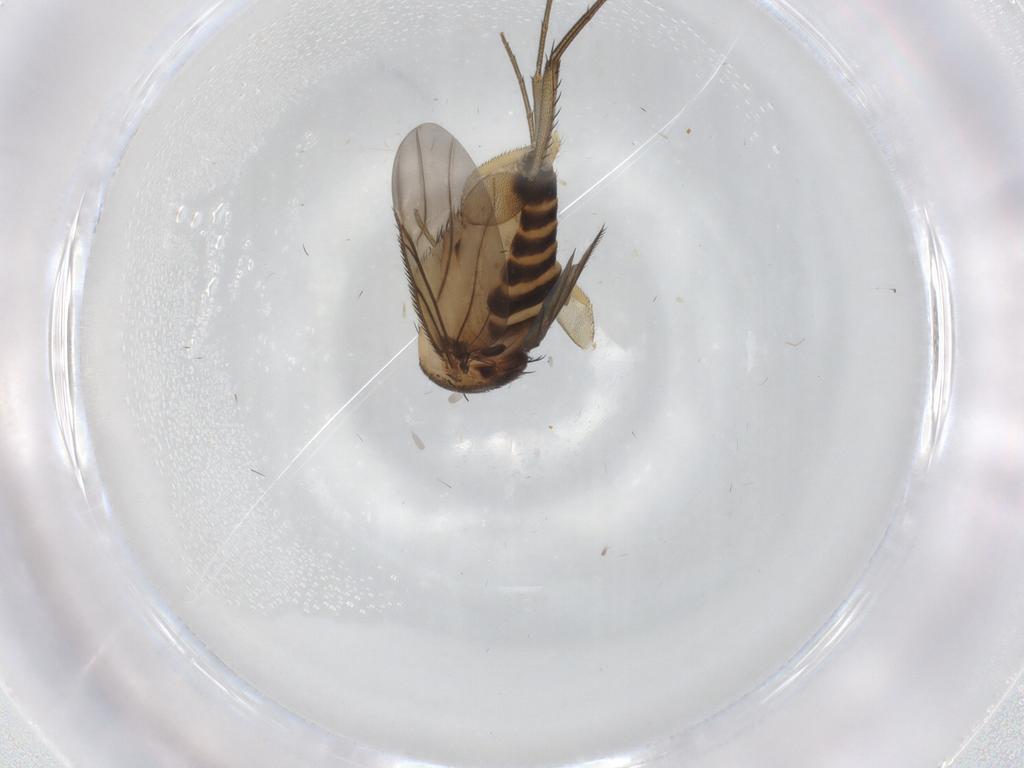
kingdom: Animalia
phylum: Arthropoda
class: Insecta
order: Diptera
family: Phoridae
